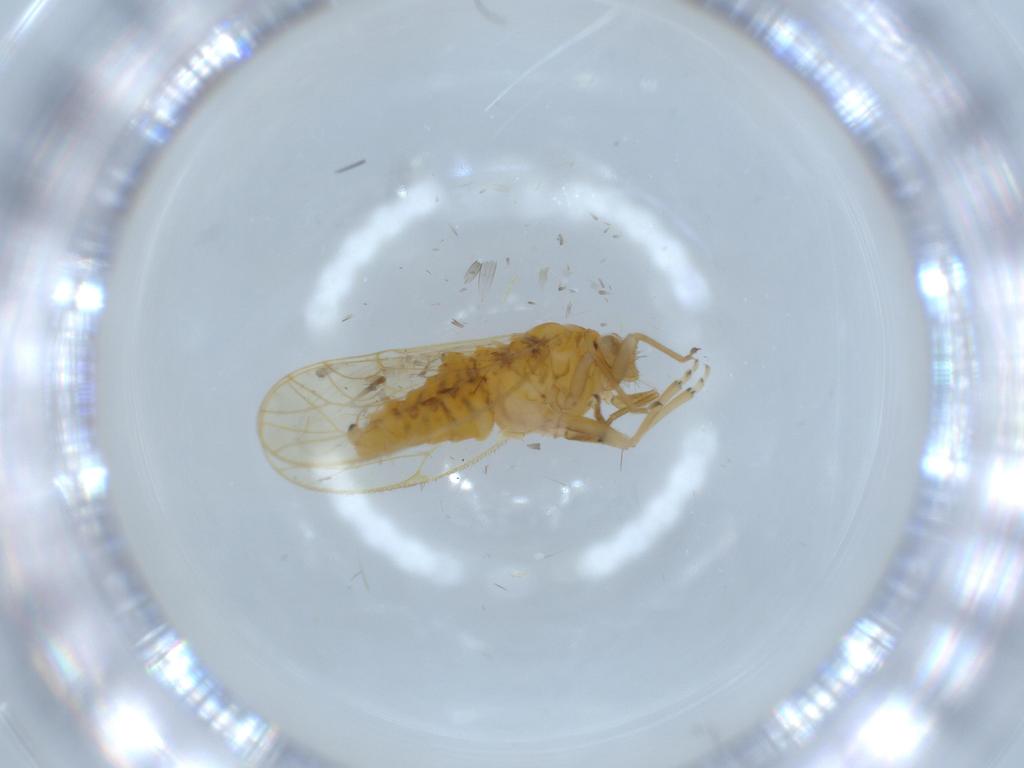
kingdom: Animalia
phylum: Arthropoda
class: Insecta
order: Hemiptera
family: Psyllidae
